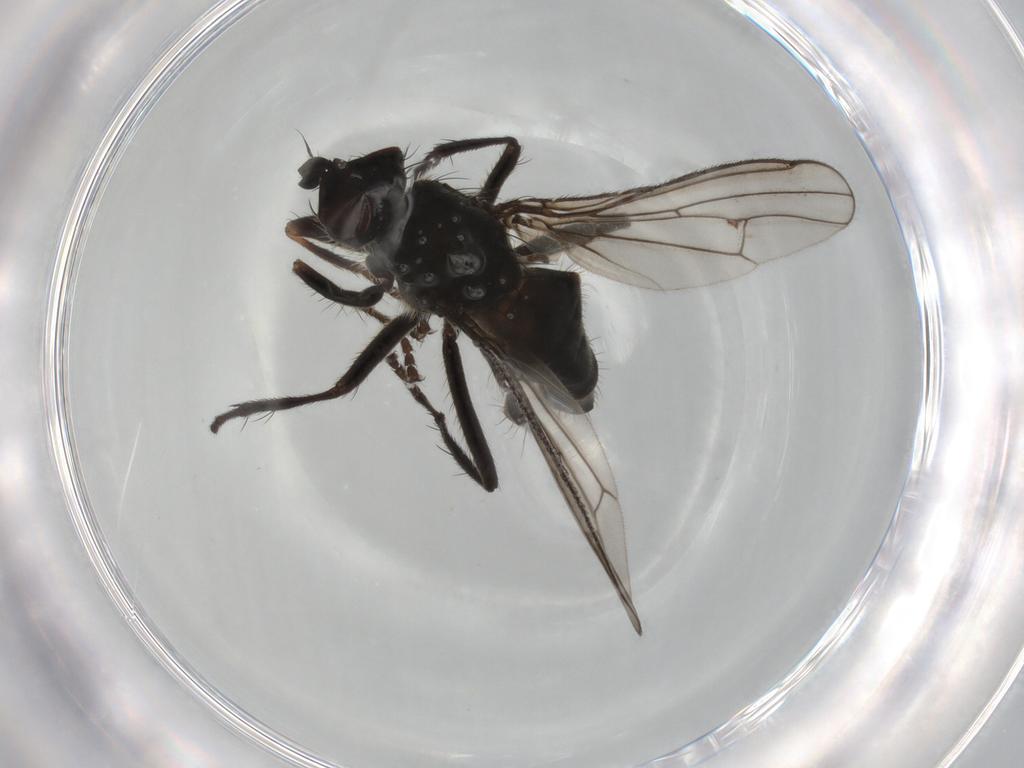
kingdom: Animalia
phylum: Arthropoda
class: Insecta
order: Diptera
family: Scathophagidae
